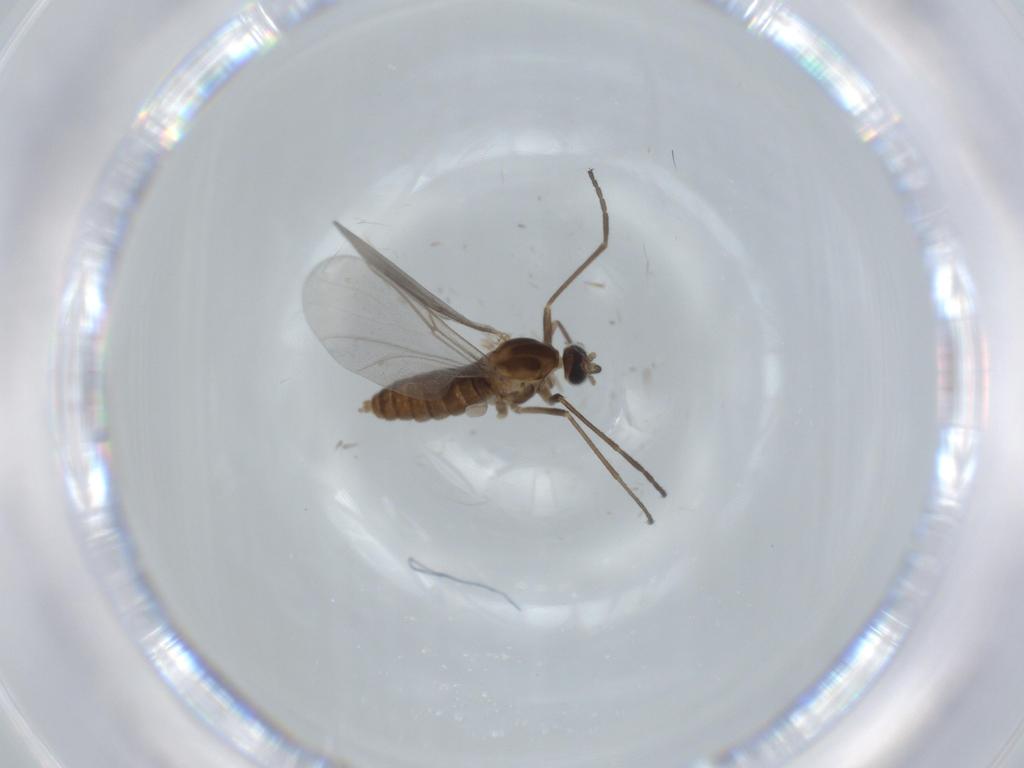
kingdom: Animalia
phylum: Arthropoda
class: Insecta
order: Diptera
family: Cecidomyiidae
